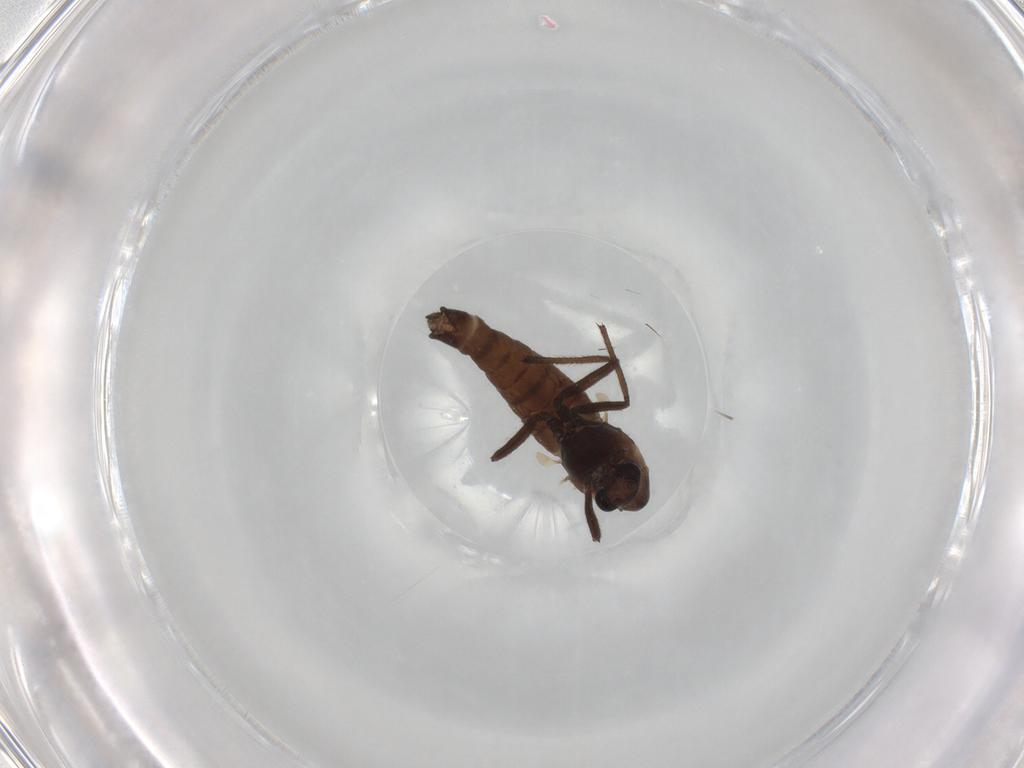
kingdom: Animalia
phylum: Arthropoda
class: Insecta
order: Diptera
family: Chironomidae
